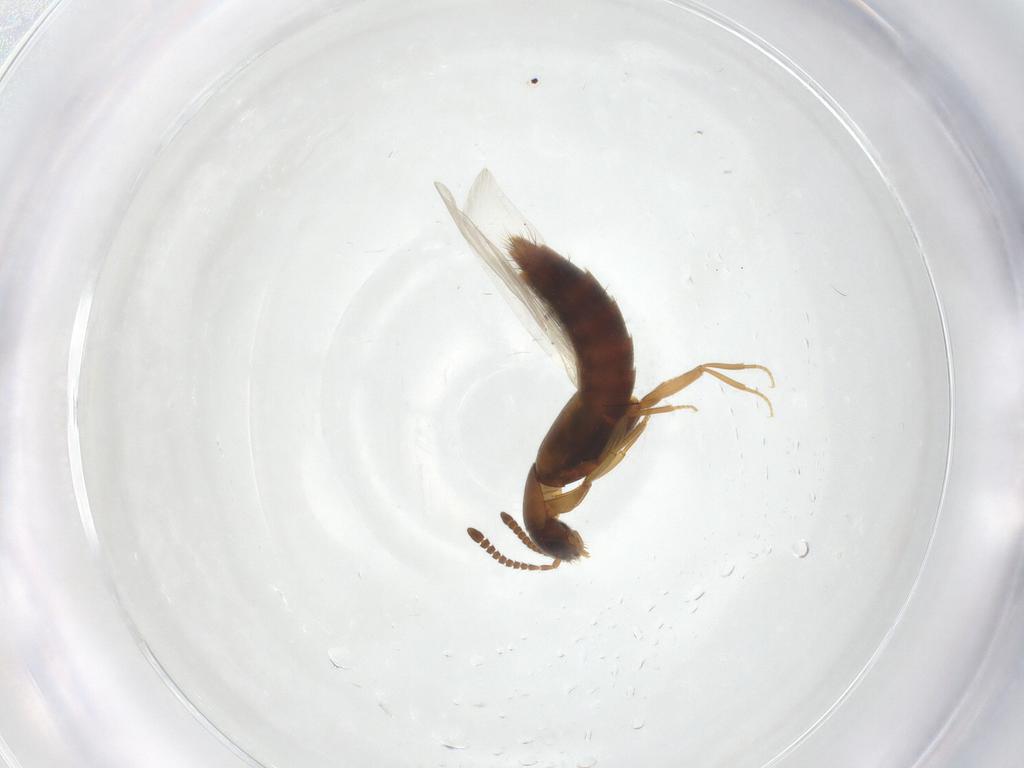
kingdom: Animalia
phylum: Arthropoda
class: Insecta
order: Coleoptera
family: Staphylinidae
